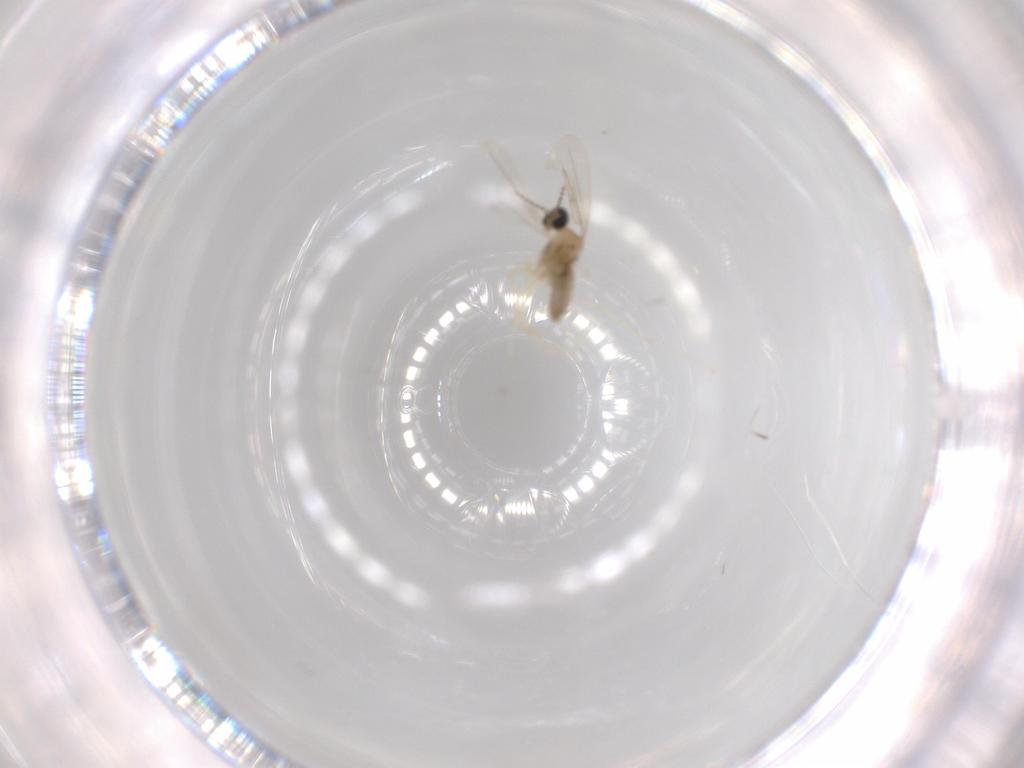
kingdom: Animalia
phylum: Arthropoda
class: Insecta
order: Diptera
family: Cecidomyiidae
